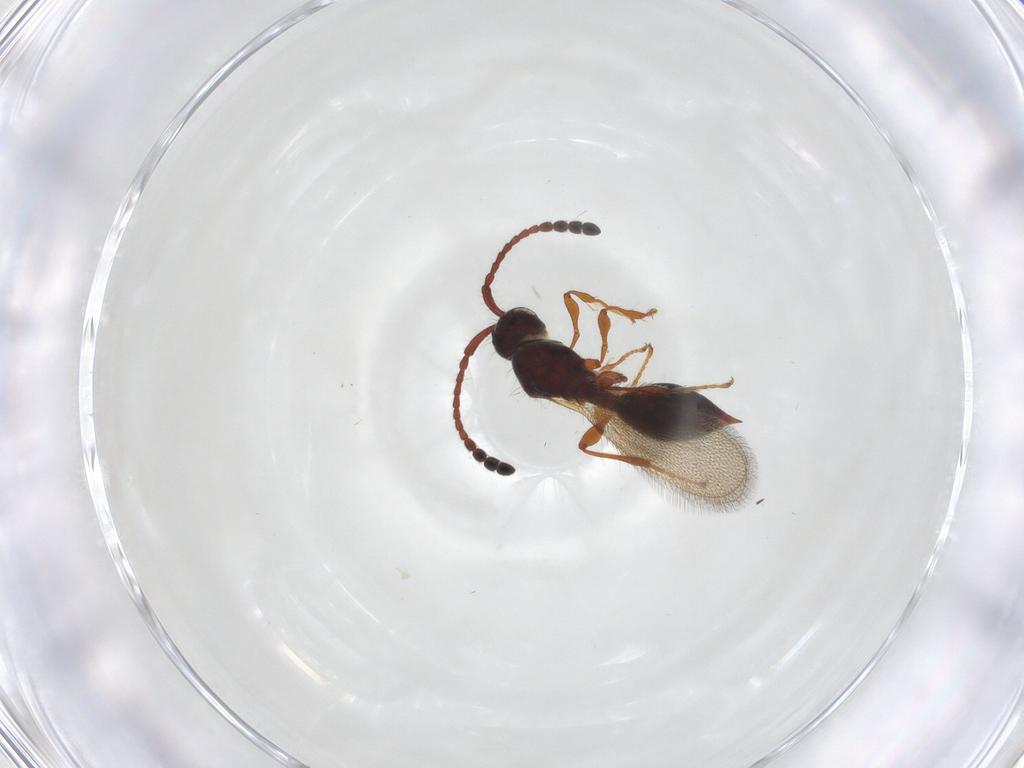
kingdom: Animalia
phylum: Arthropoda
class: Insecta
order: Hymenoptera
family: Diapriidae
